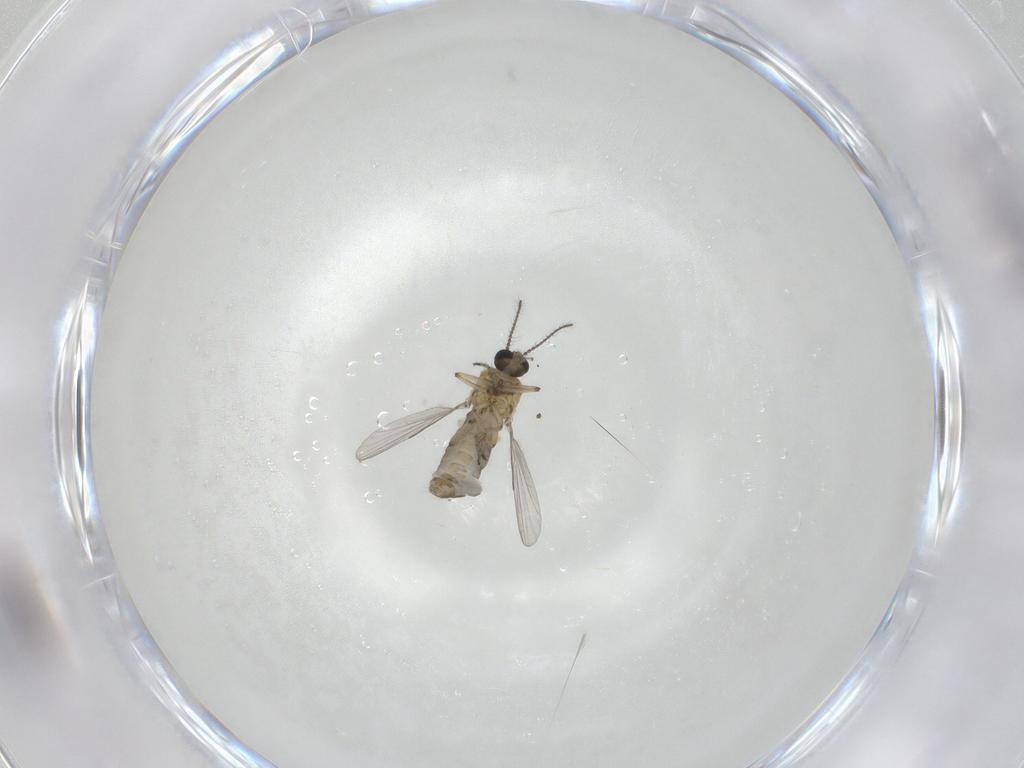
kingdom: Animalia
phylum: Arthropoda
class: Insecta
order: Diptera
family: Ceratopogonidae
